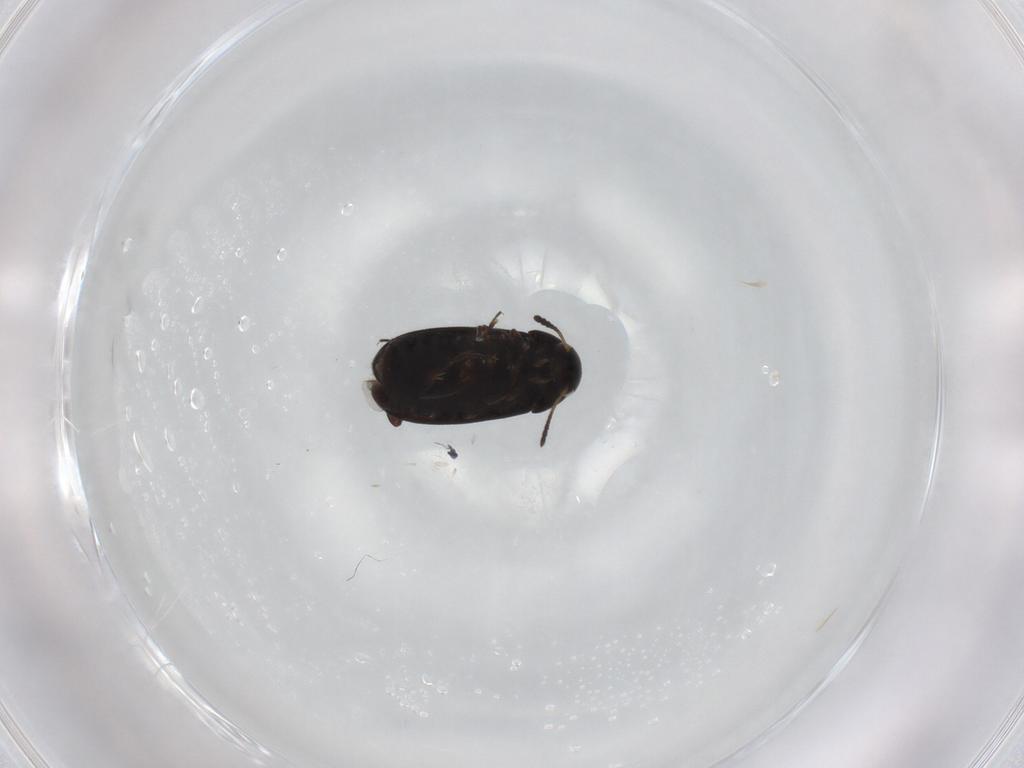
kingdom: Animalia
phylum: Arthropoda
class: Insecta
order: Coleoptera
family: Scraptiidae
